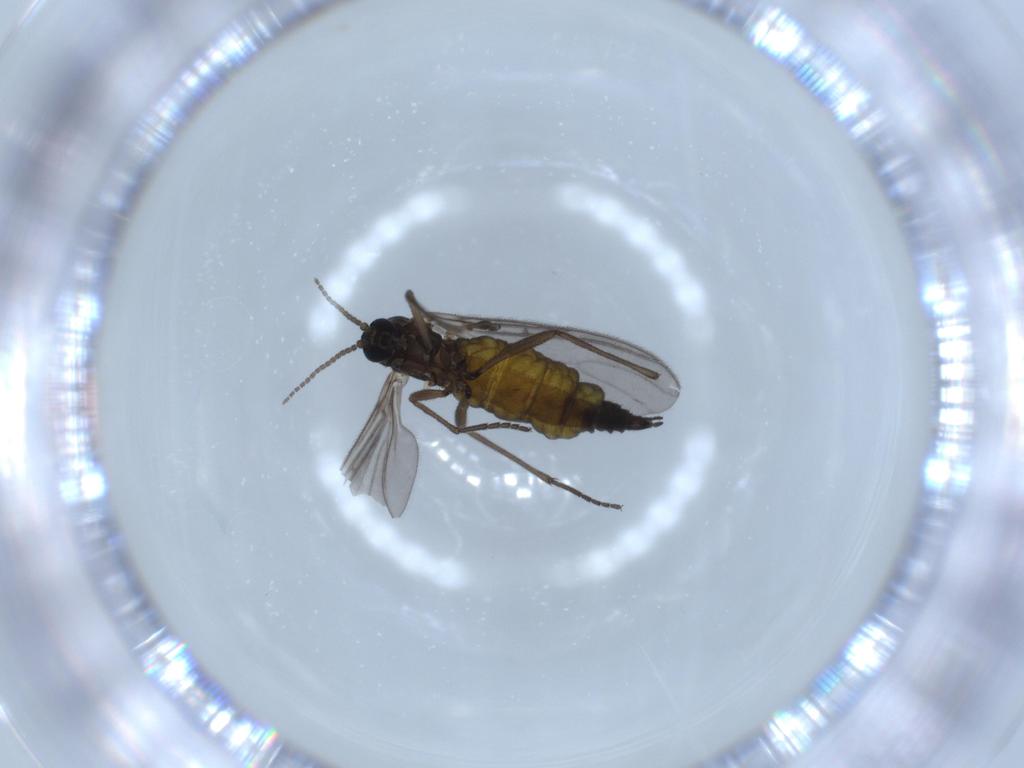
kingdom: Animalia
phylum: Arthropoda
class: Insecta
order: Diptera
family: Sciaridae
